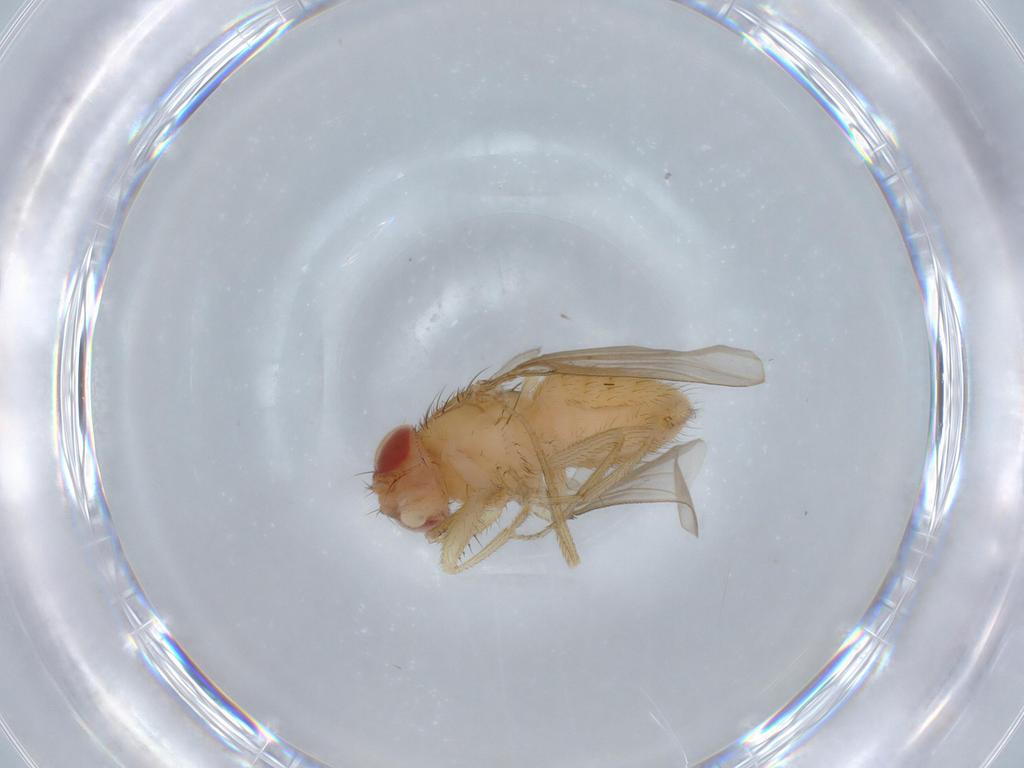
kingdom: Animalia
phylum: Arthropoda
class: Insecta
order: Diptera
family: Drosophilidae
